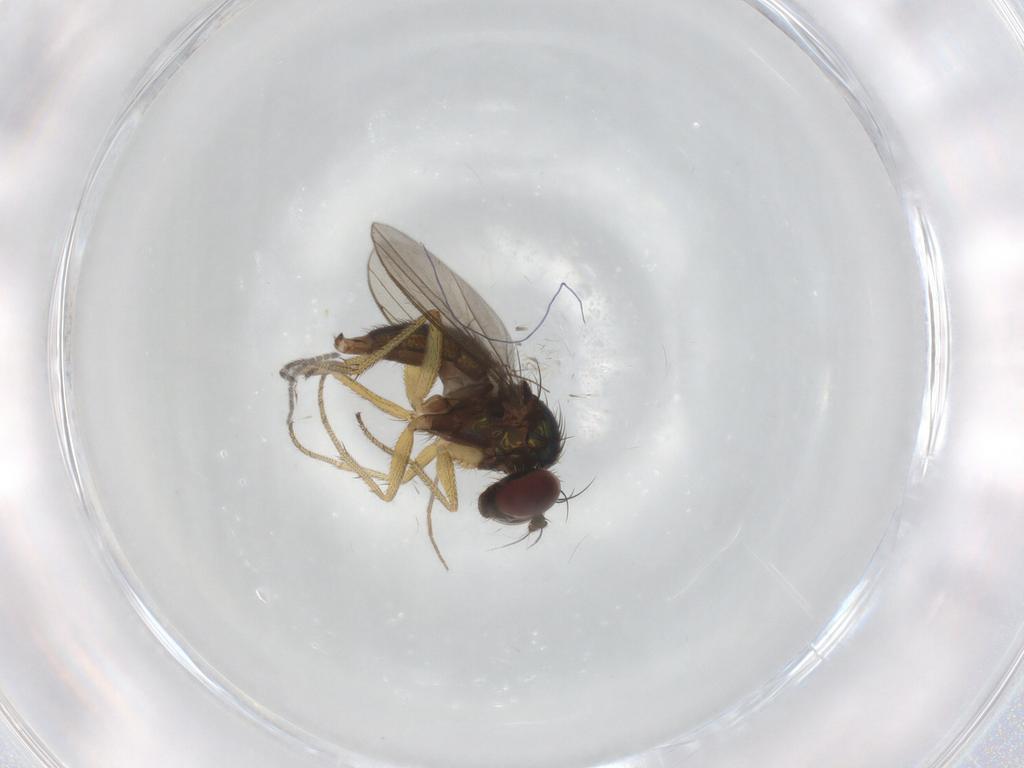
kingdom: Animalia
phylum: Arthropoda
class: Insecta
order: Diptera
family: Dolichopodidae
